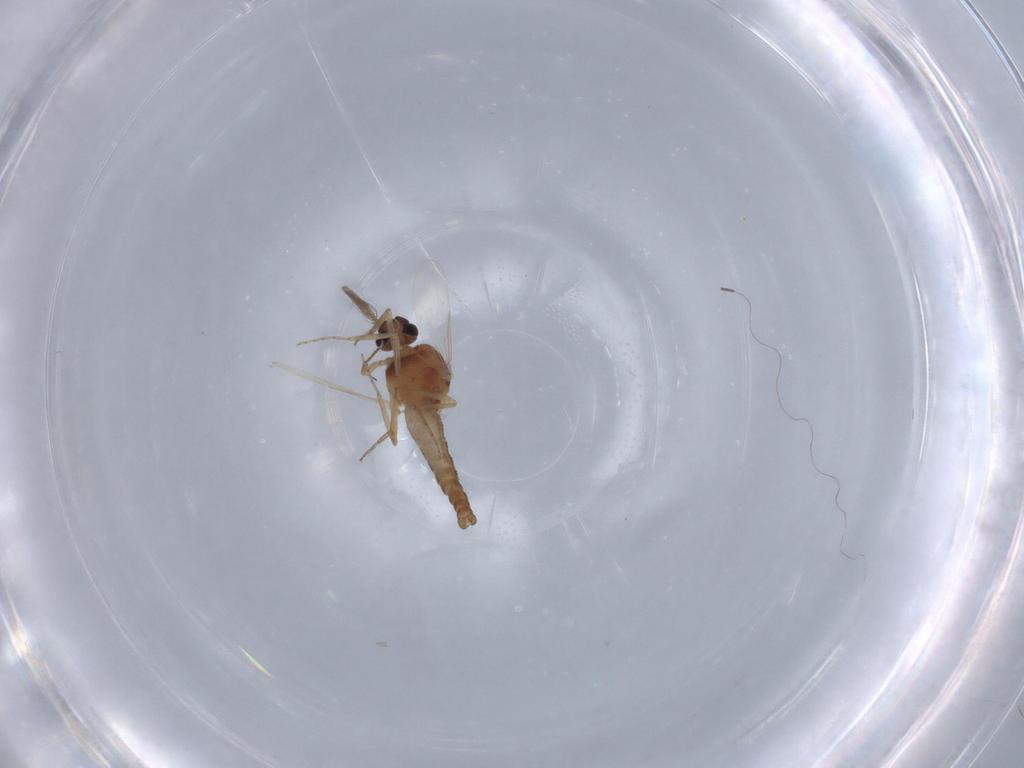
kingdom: Animalia
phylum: Arthropoda
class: Insecta
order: Diptera
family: Ceratopogonidae
